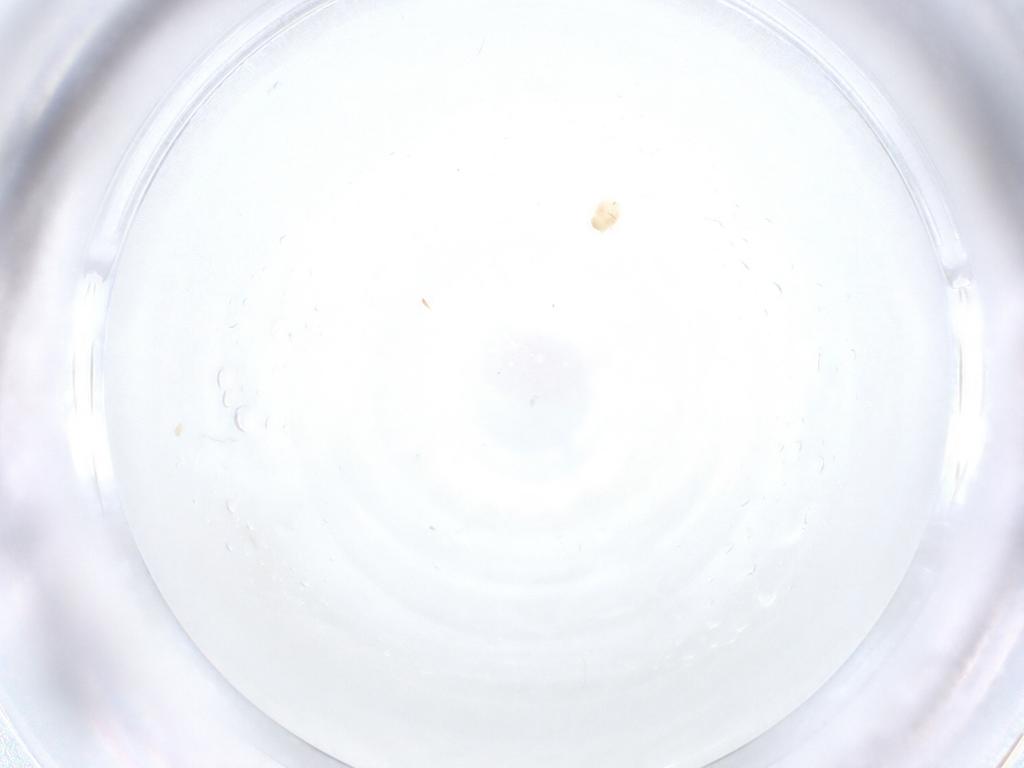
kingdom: Animalia
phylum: Arthropoda
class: Arachnida
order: Trombidiformes
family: Tetranychidae
